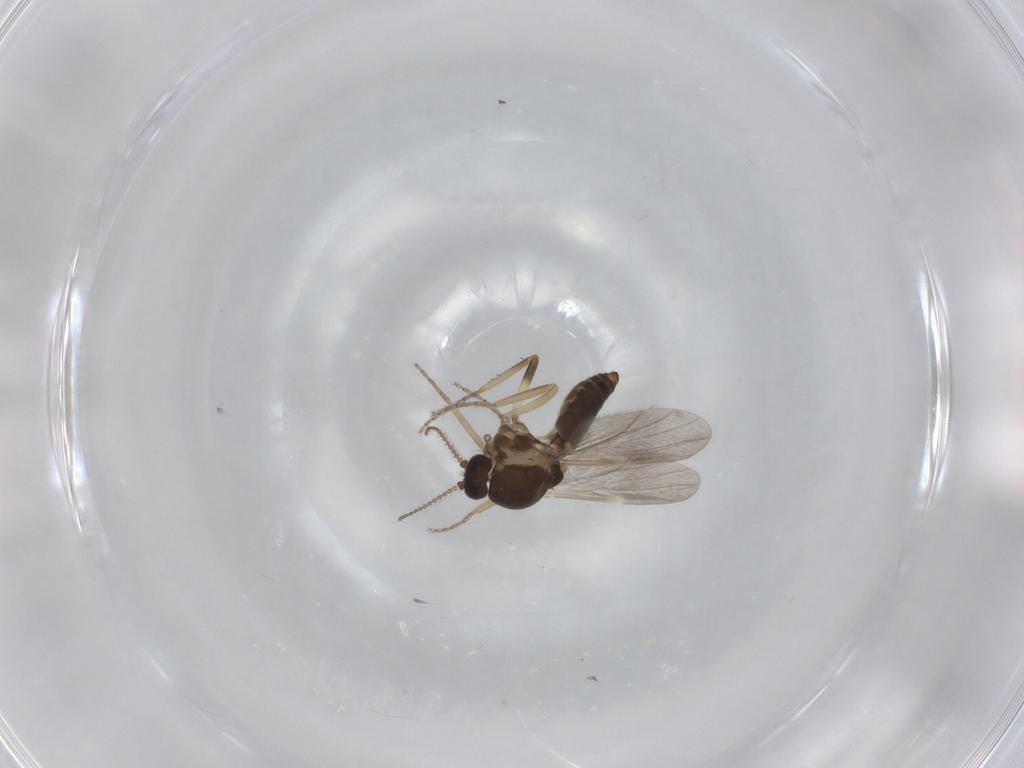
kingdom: Animalia
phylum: Arthropoda
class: Insecta
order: Diptera
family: Ceratopogonidae
